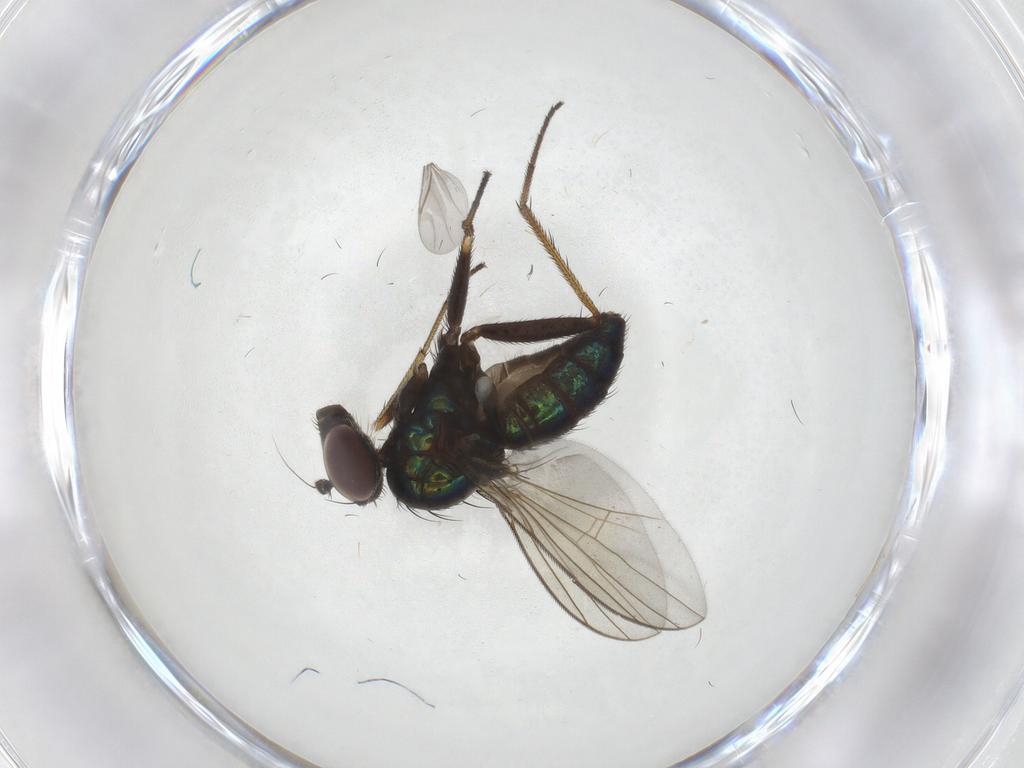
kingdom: Animalia
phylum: Arthropoda
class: Insecta
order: Diptera
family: Dolichopodidae
